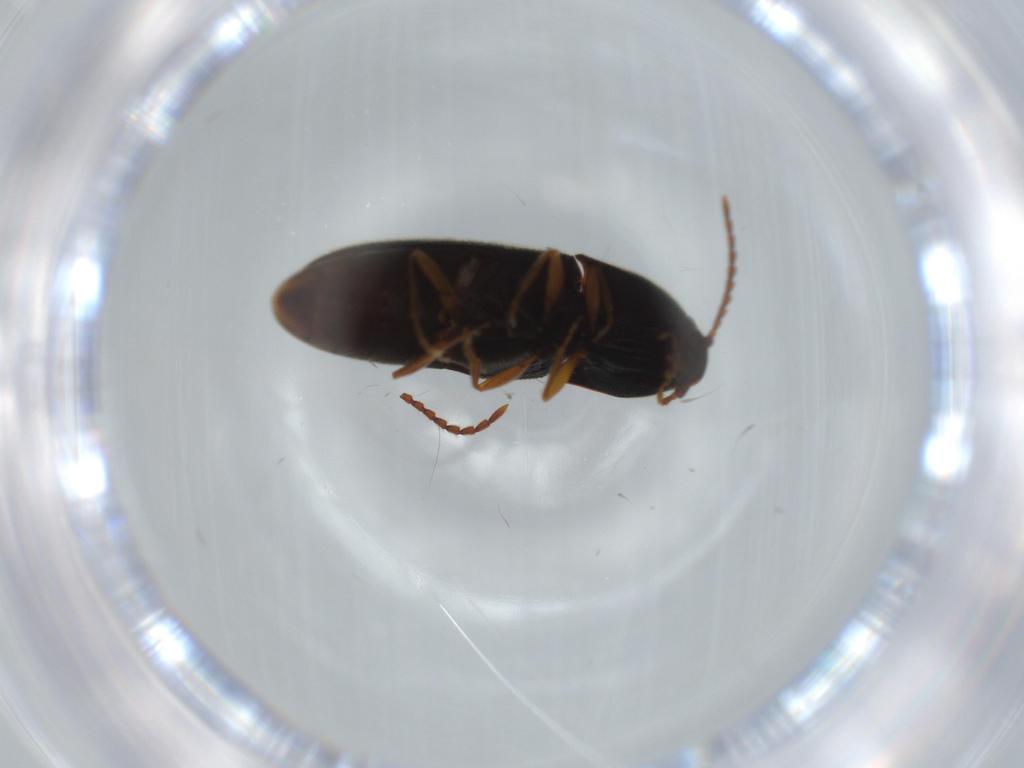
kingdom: Animalia
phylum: Arthropoda
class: Insecta
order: Coleoptera
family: Elateridae
